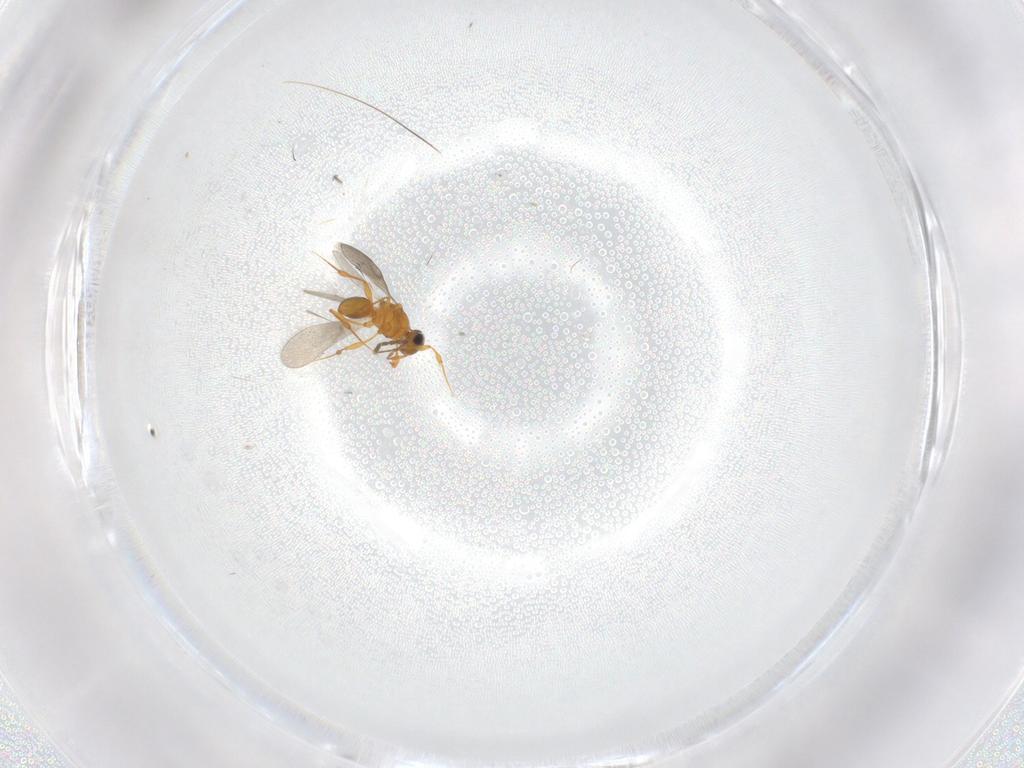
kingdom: Animalia
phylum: Arthropoda
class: Insecta
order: Hymenoptera
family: Platygastridae
